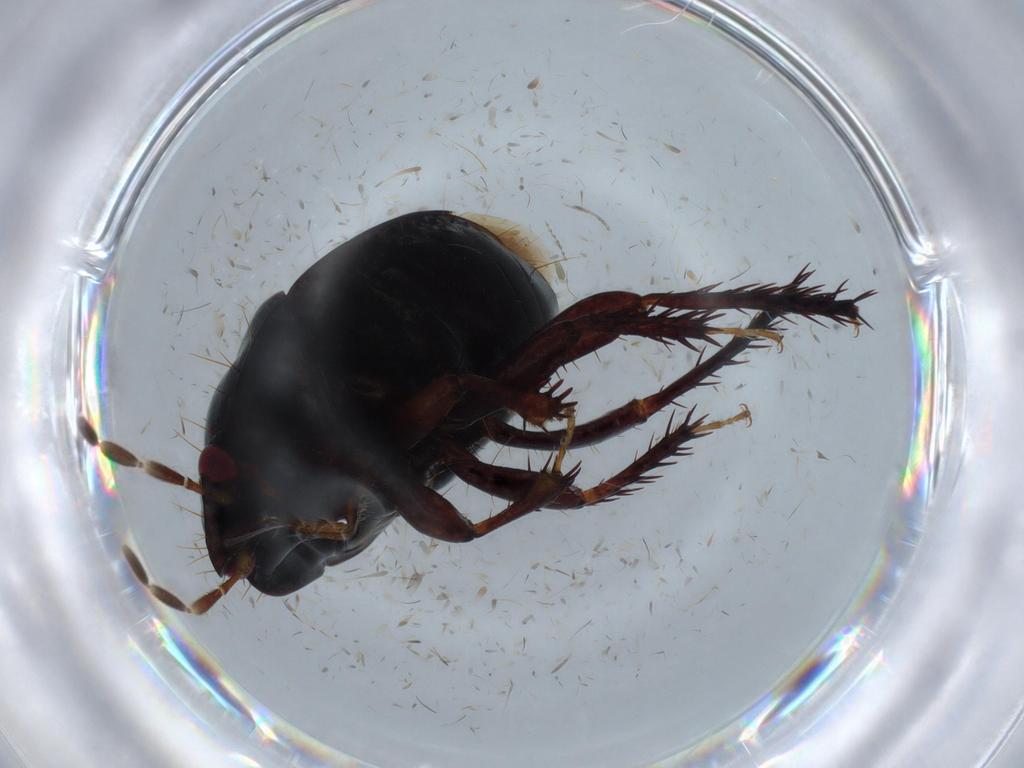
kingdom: Animalia
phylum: Arthropoda
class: Insecta
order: Hemiptera
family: Cydnidae
